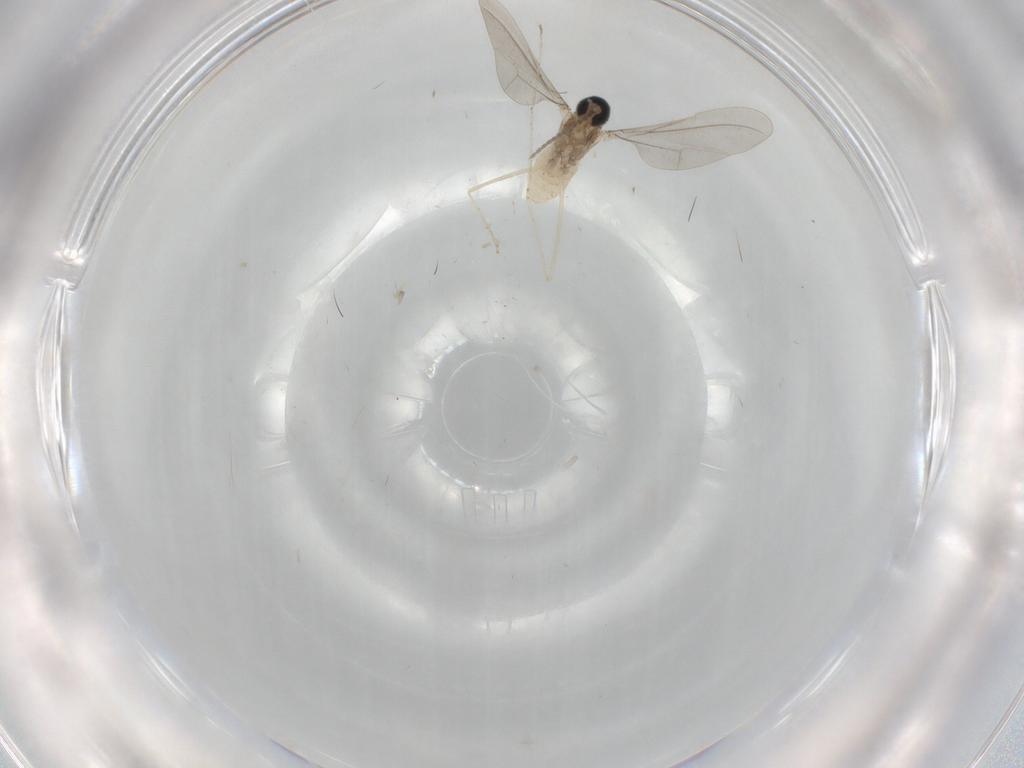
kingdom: Animalia
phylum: Arthropoda
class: Insecta
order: Diptera
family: Cecidomyiidae
